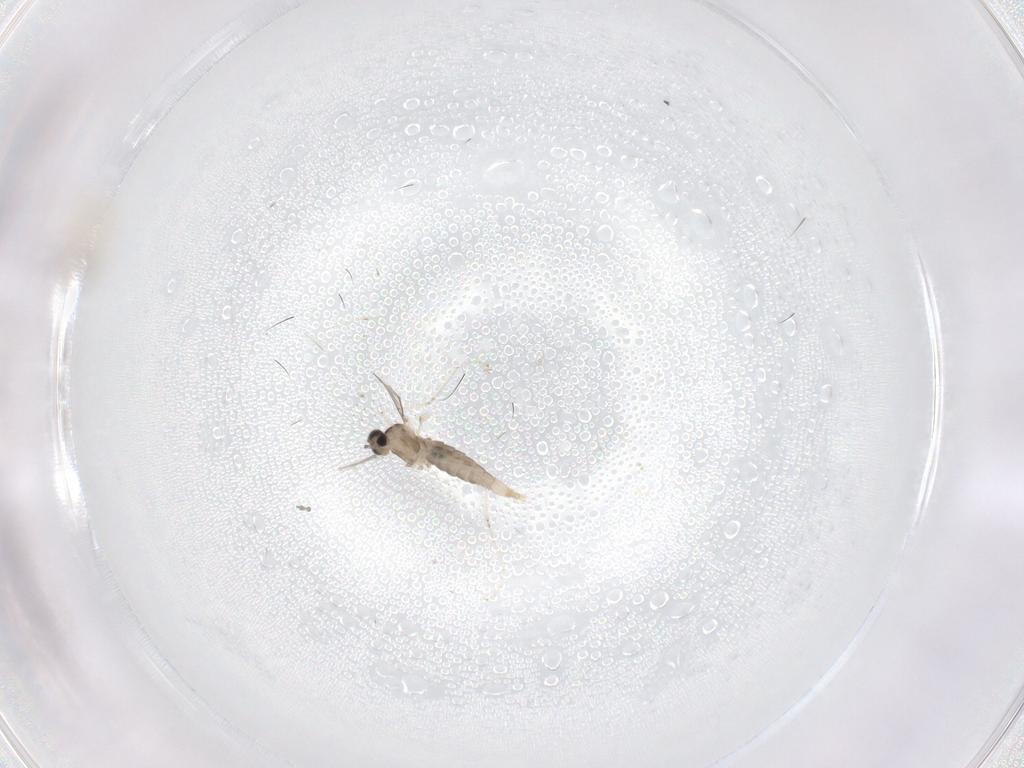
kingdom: Animalia
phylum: Arthropoda
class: Insecta
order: Diptera
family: Cecidomyiidae
